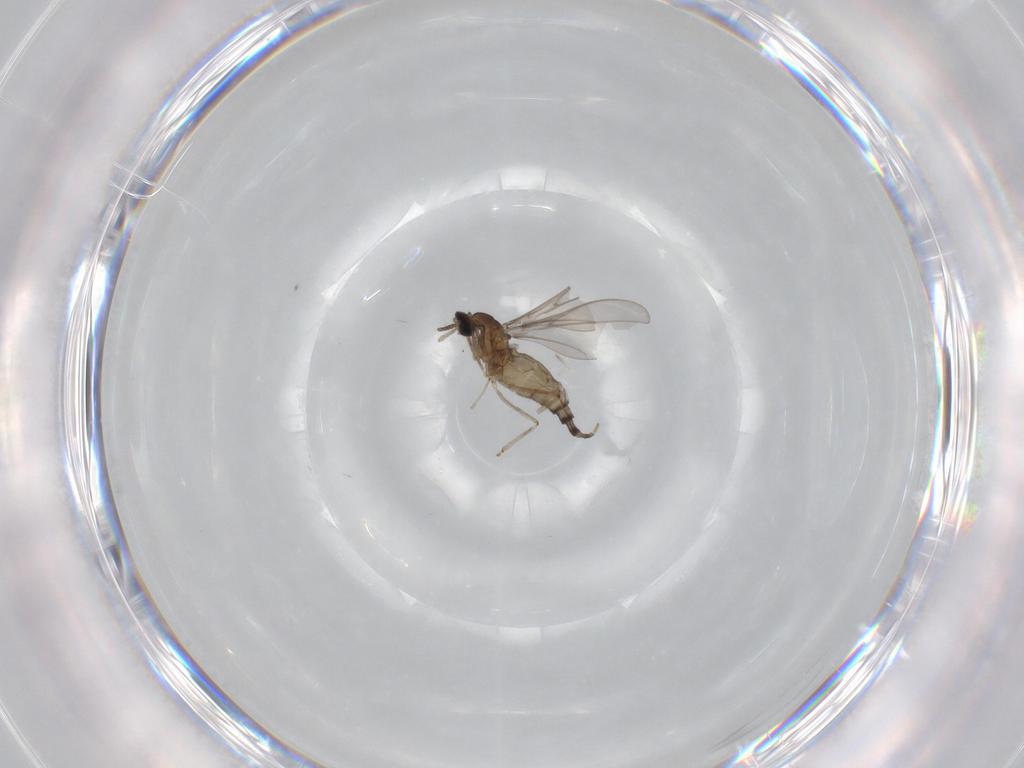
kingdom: Animalia
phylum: Arthropoda
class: Insecta
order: Diptera
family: Cecidomyiidae
